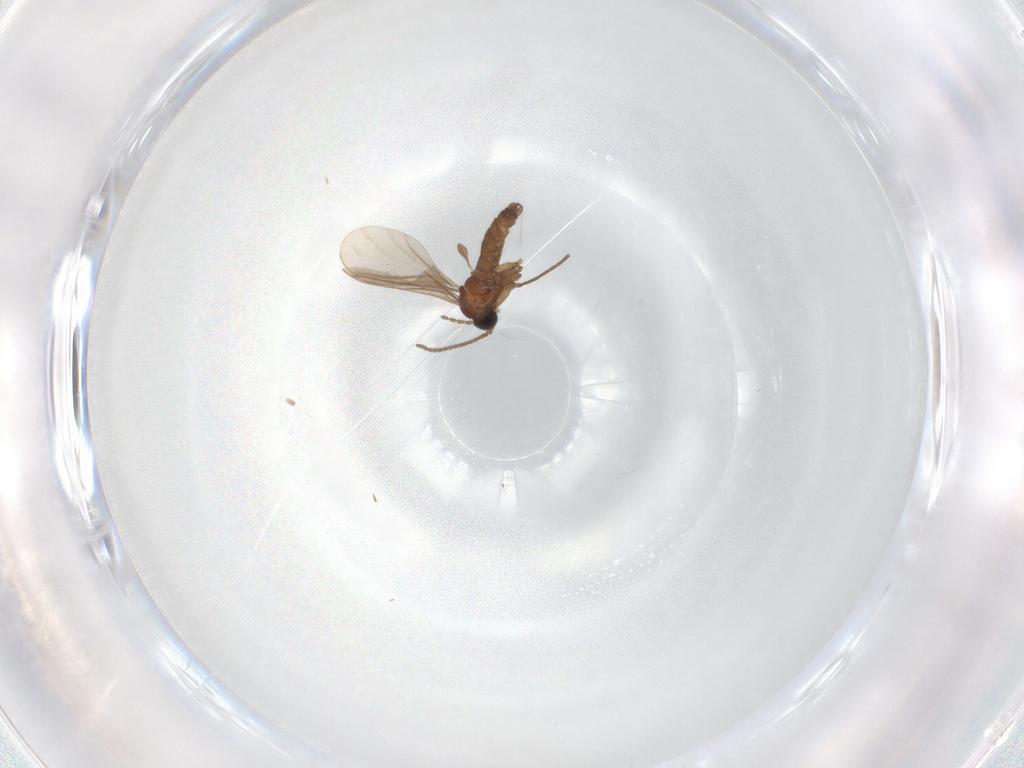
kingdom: Animalia
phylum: Arthropoda
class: Insecta
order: Diptera
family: Sciaridae
